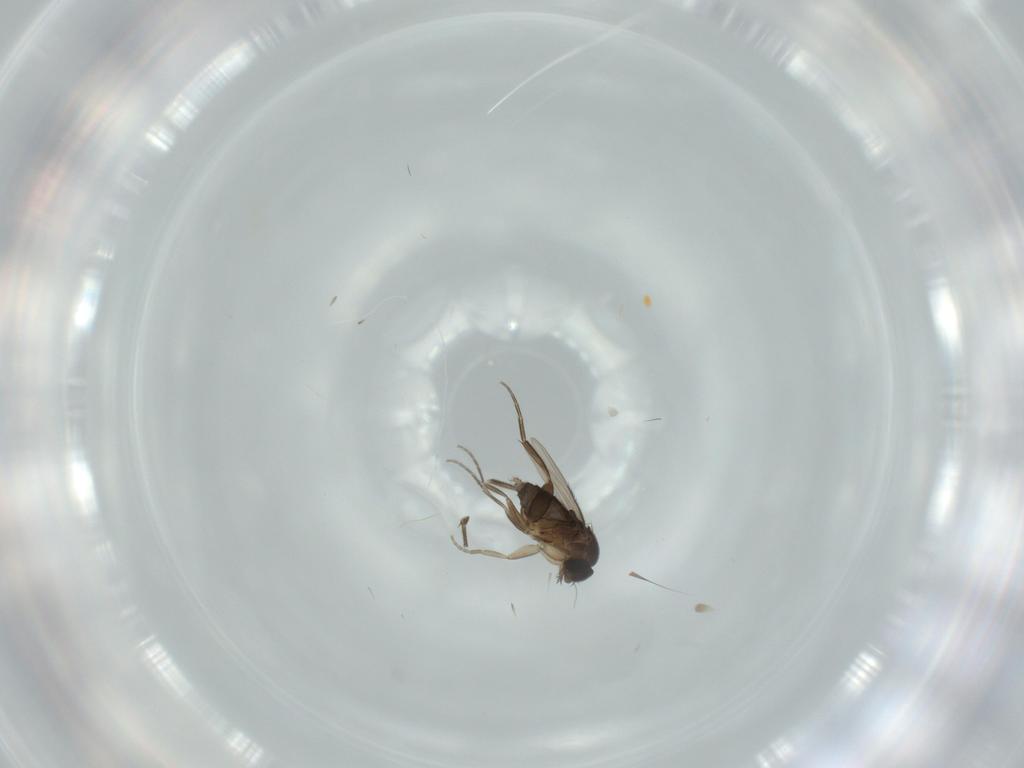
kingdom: Animalia
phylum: Arthropoda
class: Insecta
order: Diptera
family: Phoridae
